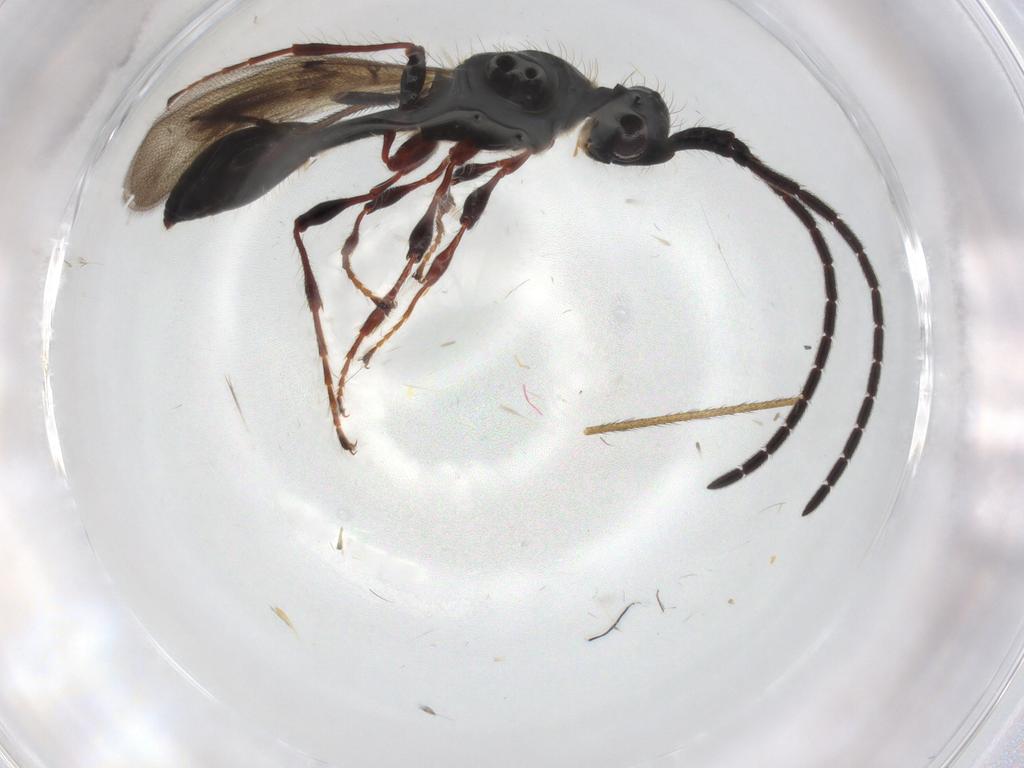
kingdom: Animalia
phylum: Arthropoda
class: Insecta
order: Hymenoptera
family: Diapriidae
